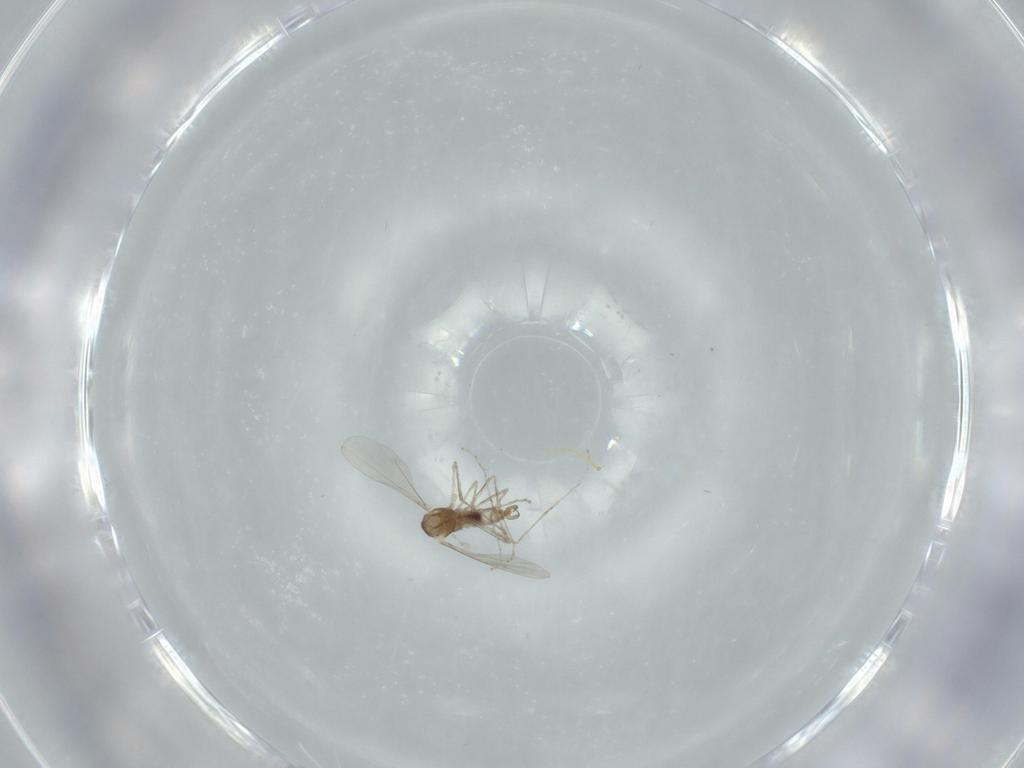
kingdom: Animalia
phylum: Arthropoda
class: Insecta
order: Diptera
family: Cecidomyiidae
